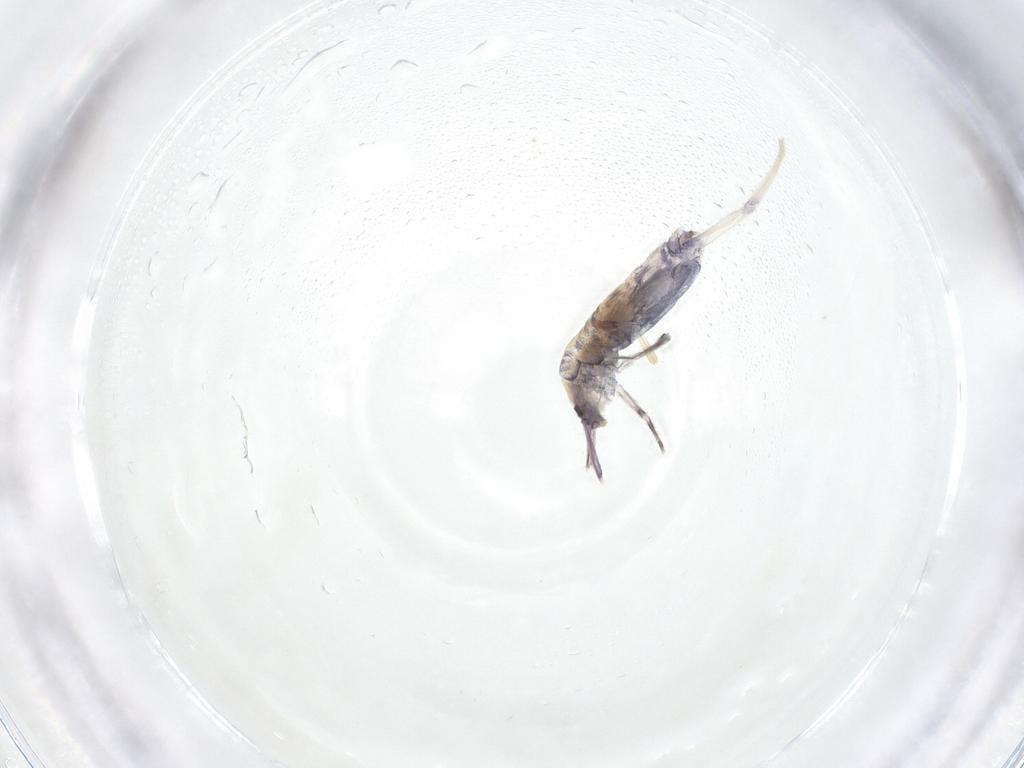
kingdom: Animalia
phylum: Arthropoda
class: Collembola
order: Entomobryomorpha
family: Entomobryidae
